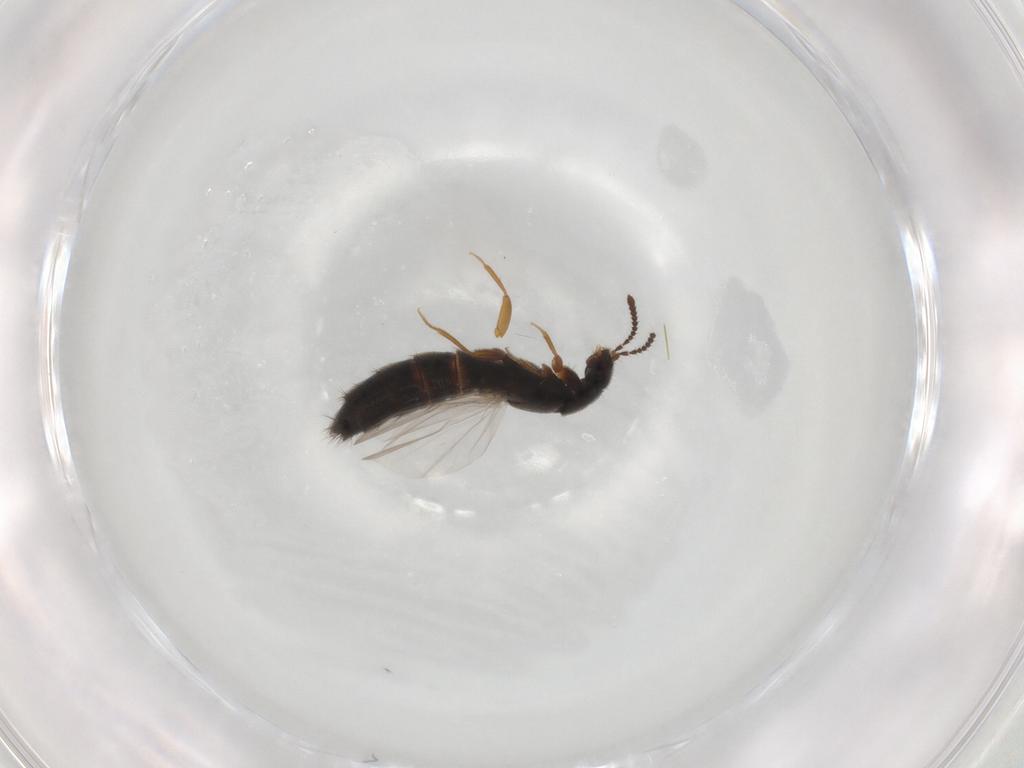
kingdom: Animalia
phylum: Arthropoda
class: Insecta
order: Coleoptera
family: Staphylinidae
